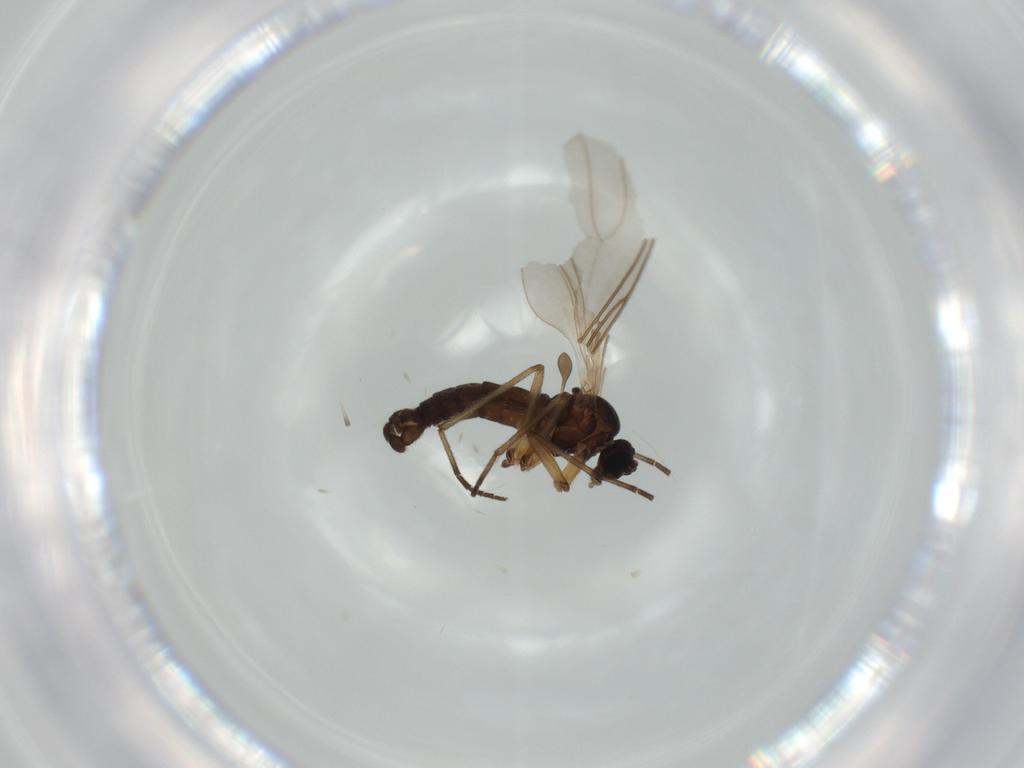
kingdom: Animalia
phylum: Arthropoda
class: Insecta
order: Diptera
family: Sciaridae
